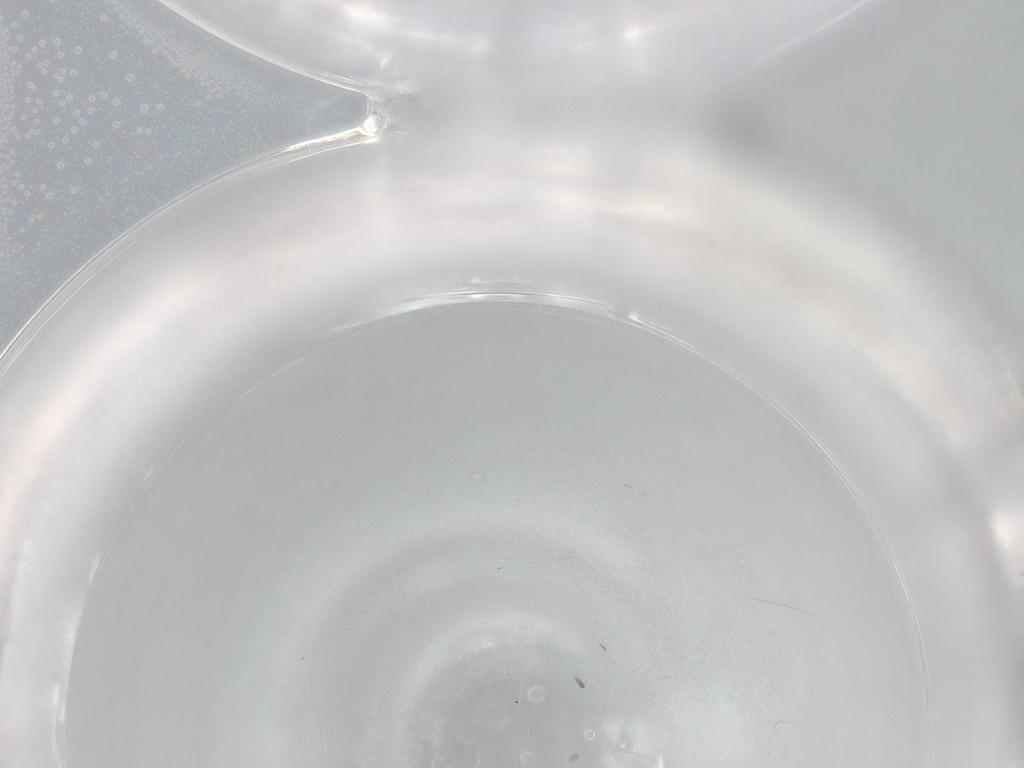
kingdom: Animalia
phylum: Arthropoda
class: Insecta
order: Diptera
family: Phoridae
